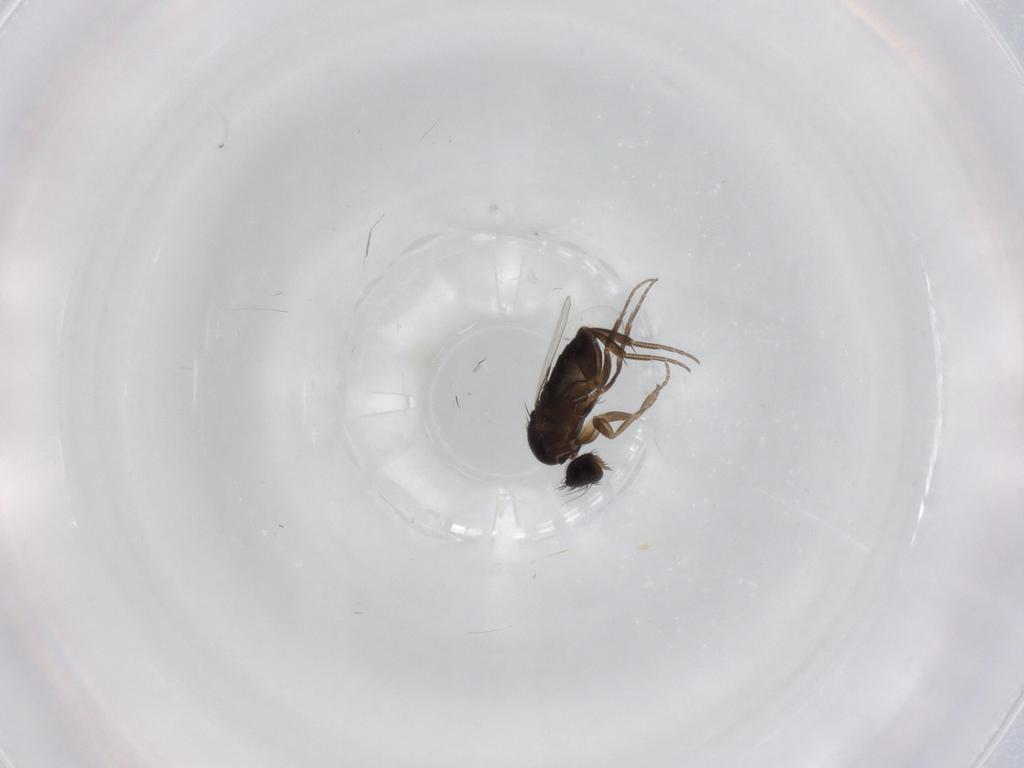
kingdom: Animalia
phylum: Arthropoda
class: Insecta
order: Diptera
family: Phoridae
